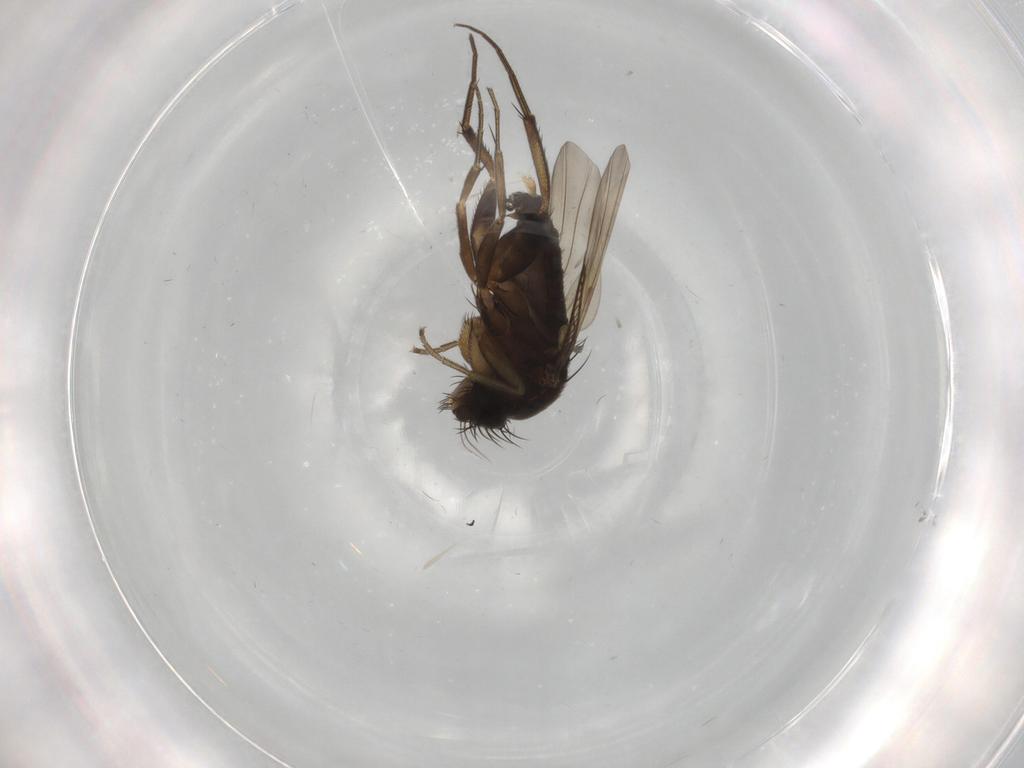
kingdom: Animalia
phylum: Arthropoda
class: Insecta
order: Diptera
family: Phoridae
